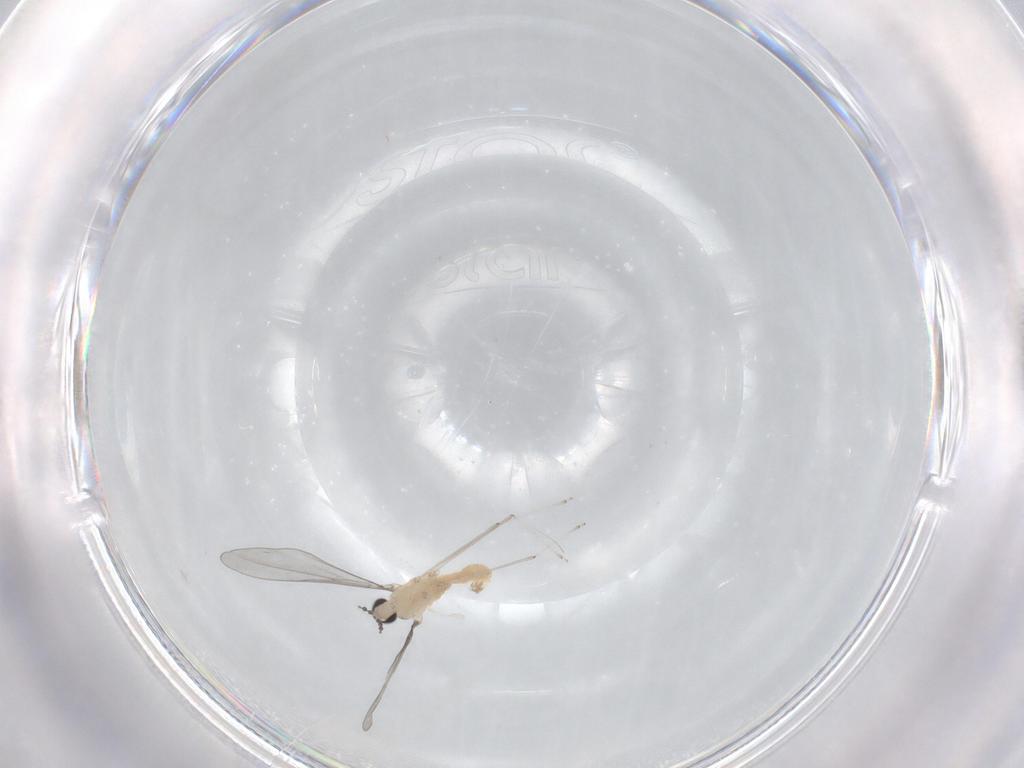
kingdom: Animalia
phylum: Arthropoda
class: Insecta
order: Diptera
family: Cecidomyiidae
